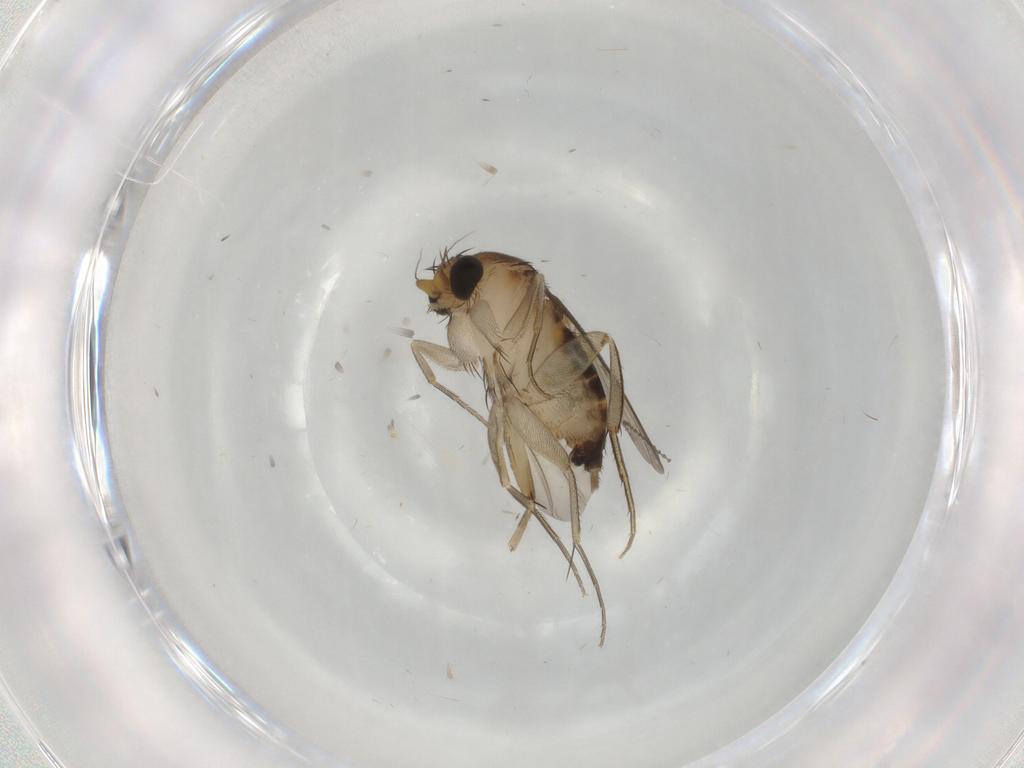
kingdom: Animalia
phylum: Arthropoda
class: Insecta
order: Diptera
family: Phoridae
